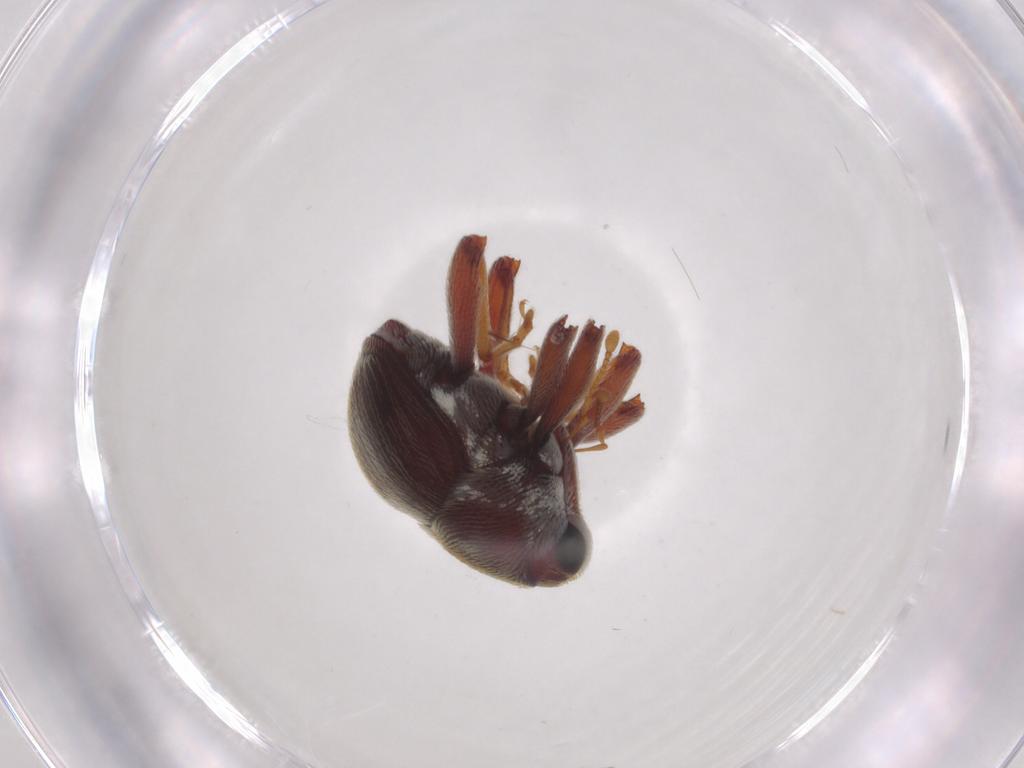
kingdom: Animalia
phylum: Arthropoda
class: Insecta
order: Coleoptera
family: Curculionidae
